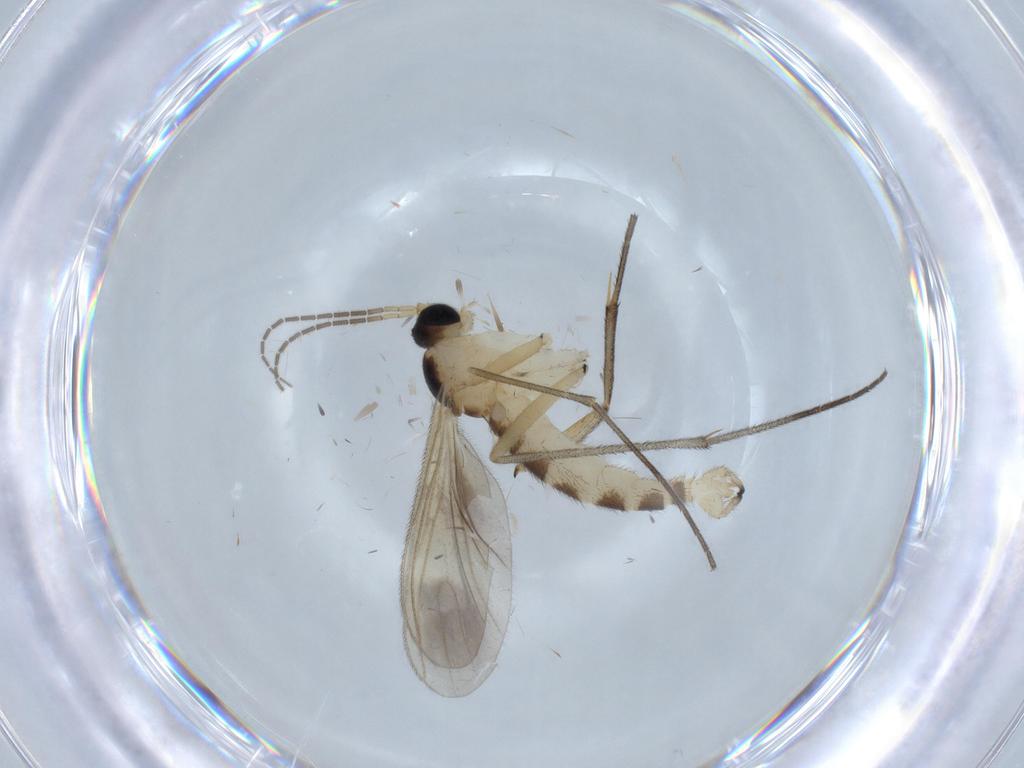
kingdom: Animalia
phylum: Arthropoda
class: Insecta
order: Diptera
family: Sciaridae
